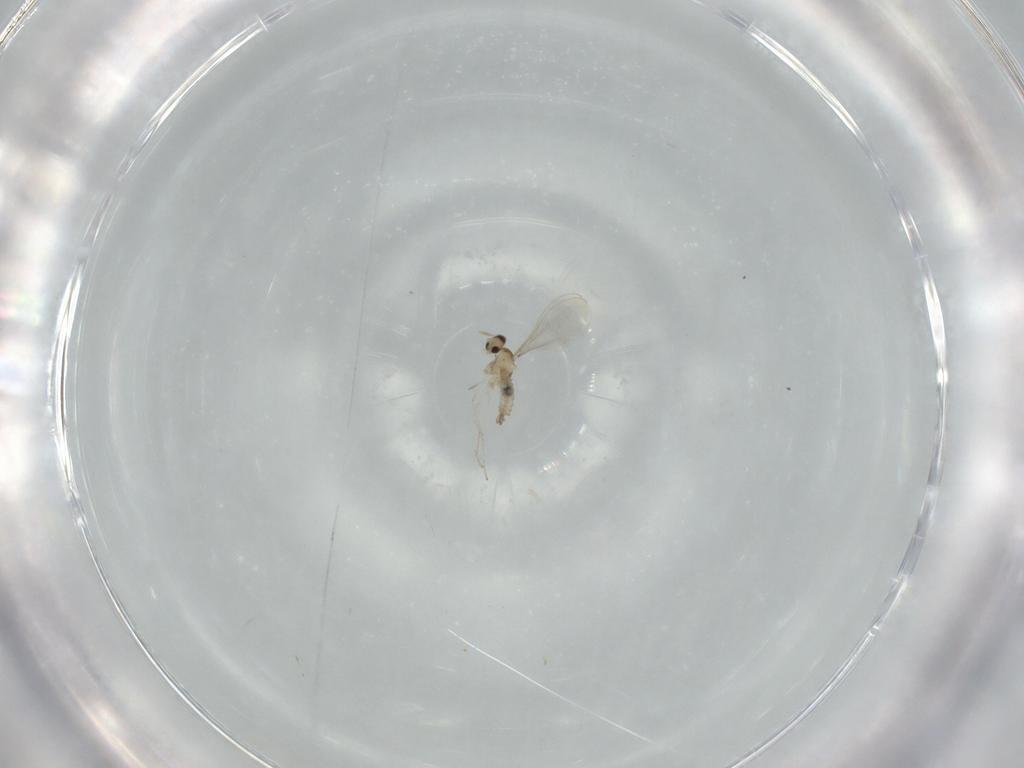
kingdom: Animalia
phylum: Arthropoda
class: Insecta
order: Diptera
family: Cecidomyiidae
